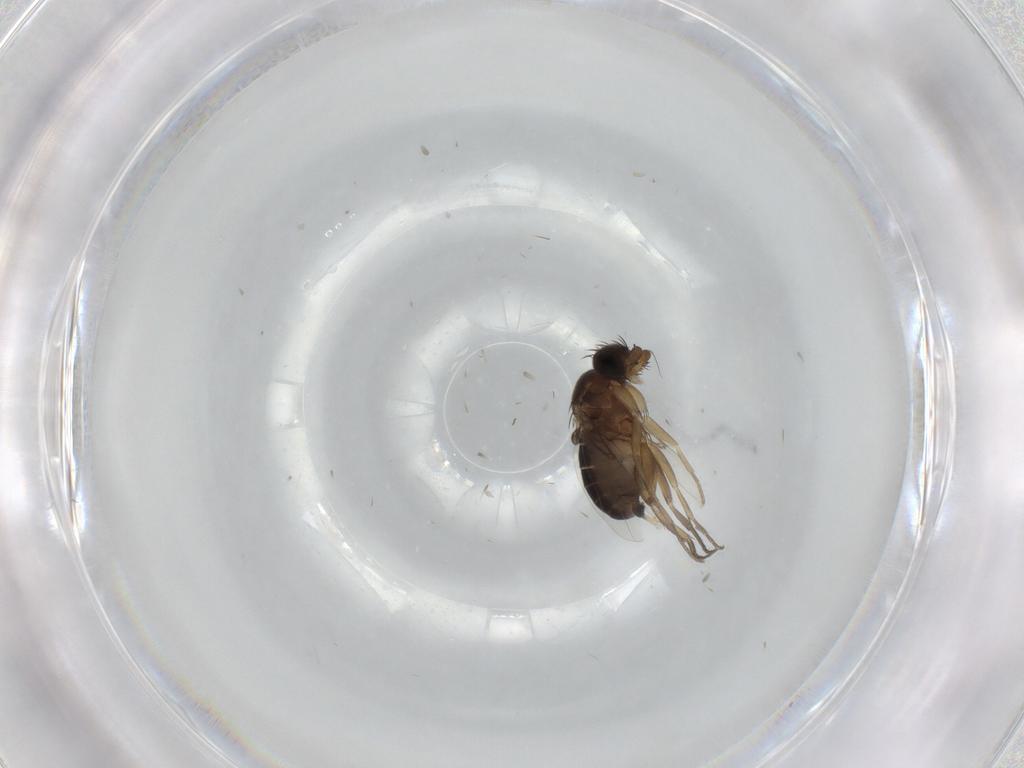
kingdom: Animalia
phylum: Arthropoda
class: Insecta
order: Diptera
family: Phoridae
